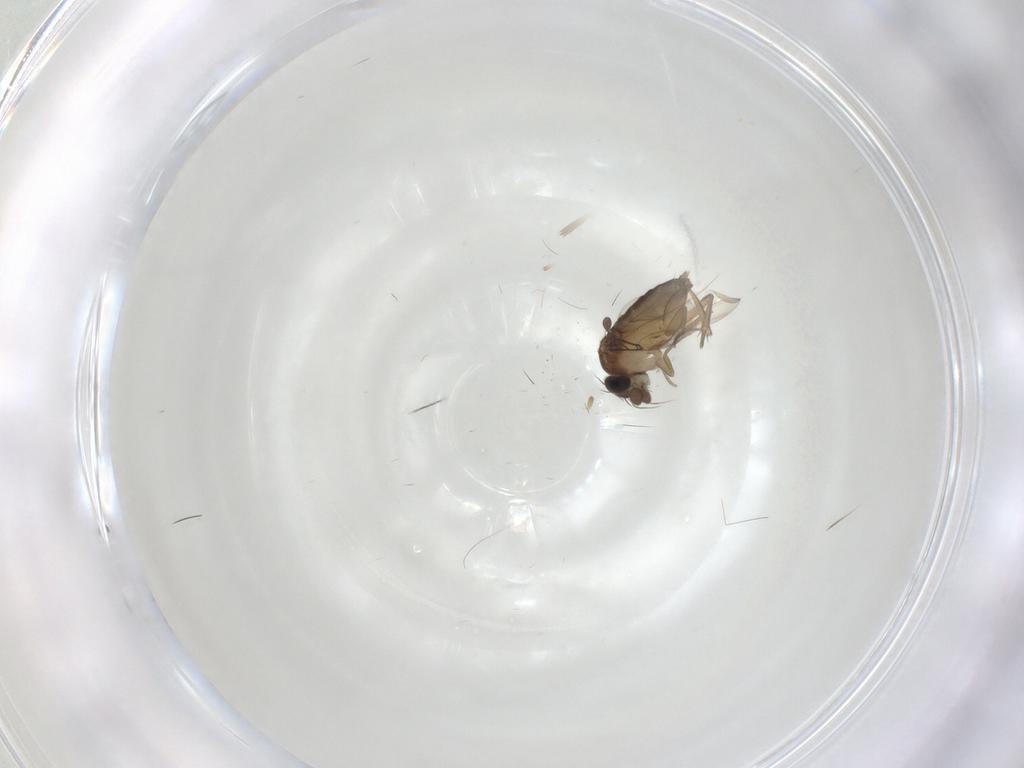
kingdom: Animalia
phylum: Arthropoda
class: Insecta
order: Diptera
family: Phoridae
